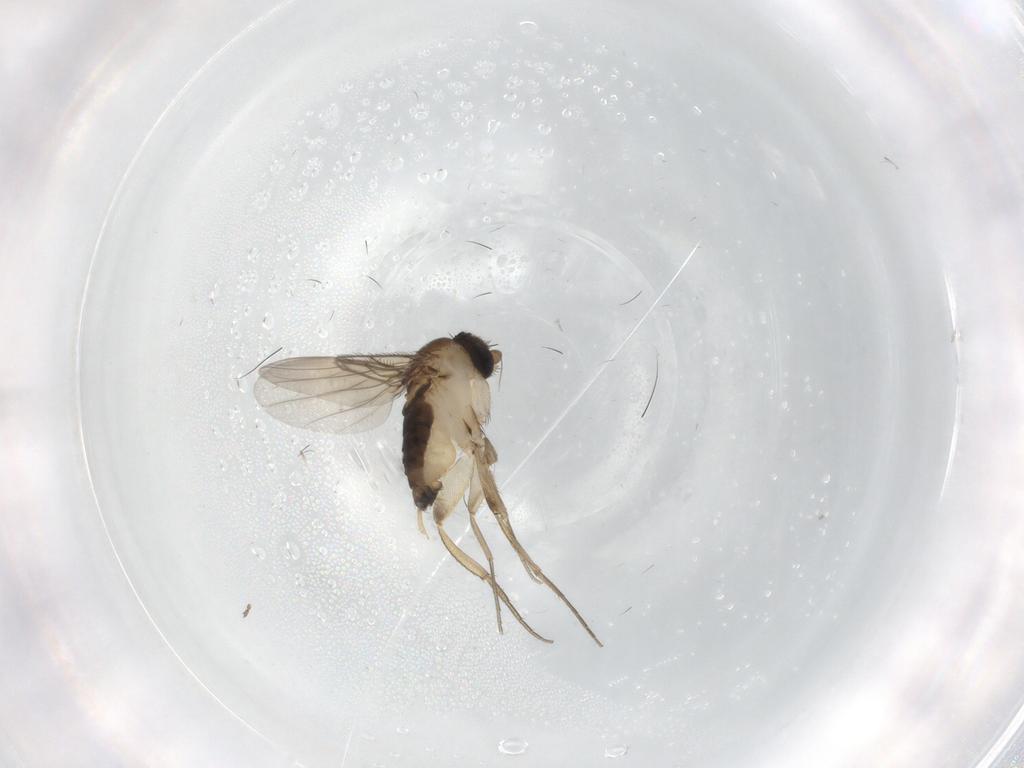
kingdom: Animalia
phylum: Arthropoda
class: Insecta
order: Diptera
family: Phoridae
